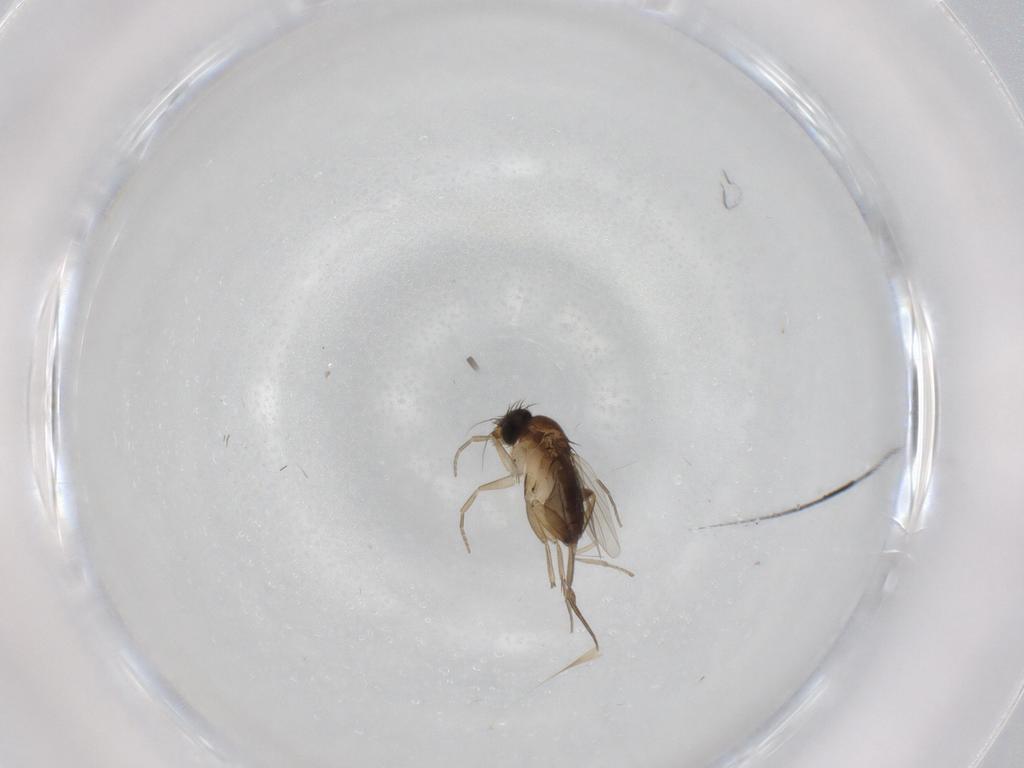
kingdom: Animalia
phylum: Arthropoda
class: Insecta
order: Diptera
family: Phoridae
